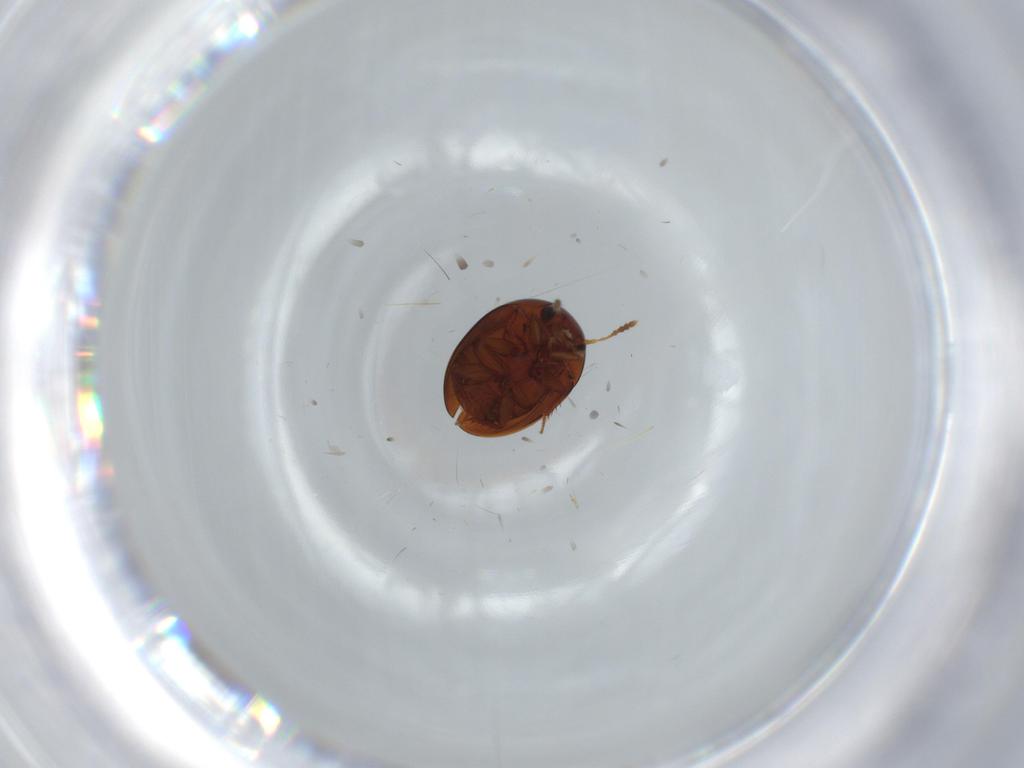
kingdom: Animalia
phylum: Arthropoda
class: Insecta
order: Coleoptera
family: Leiodidae
